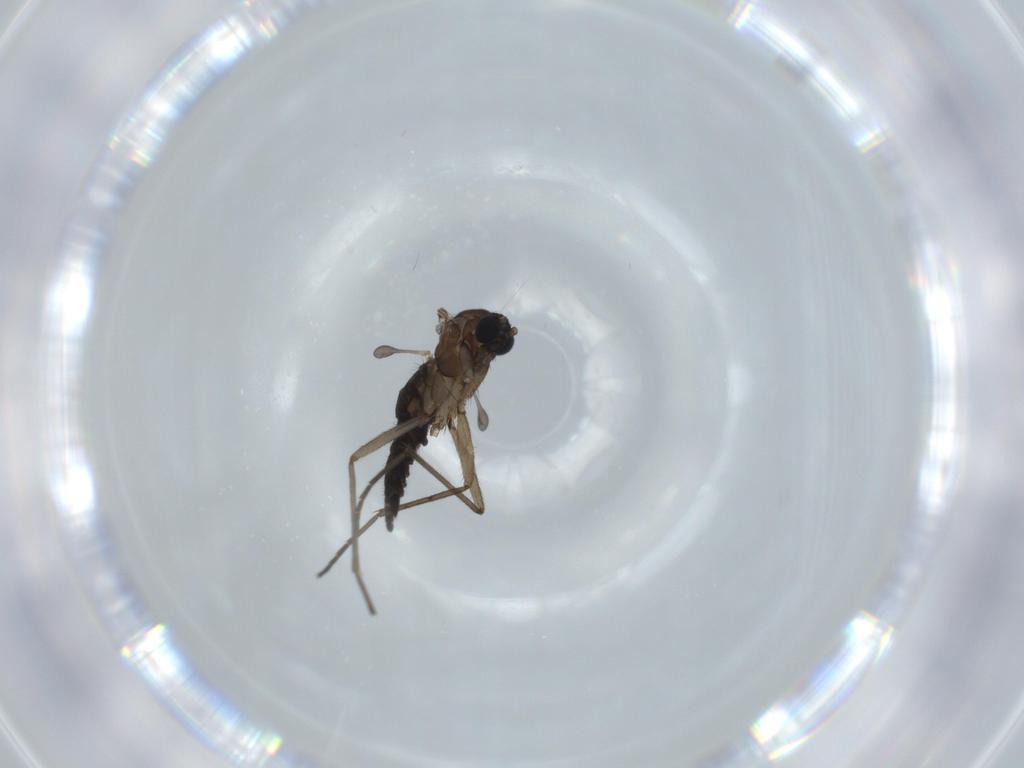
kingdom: Animalia
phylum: Arthropoda
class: Insecta
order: Diptera
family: Sciaridae
